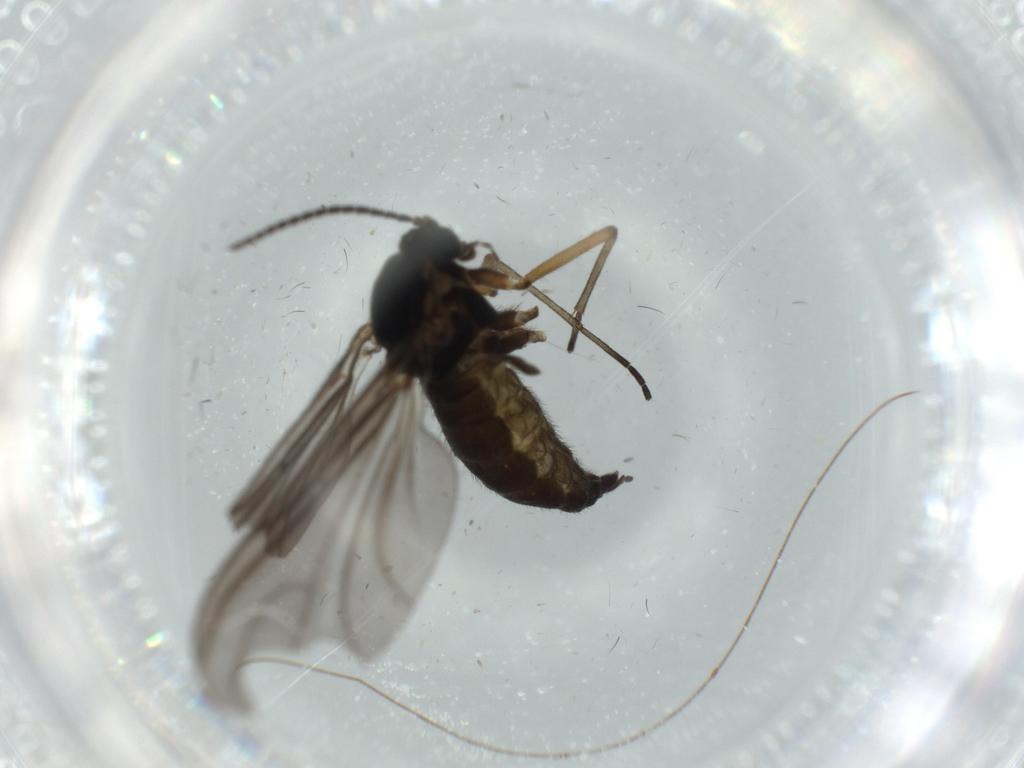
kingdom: Animalia
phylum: Arthropoda
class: Insecta
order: Diptera
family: Sciaridae
